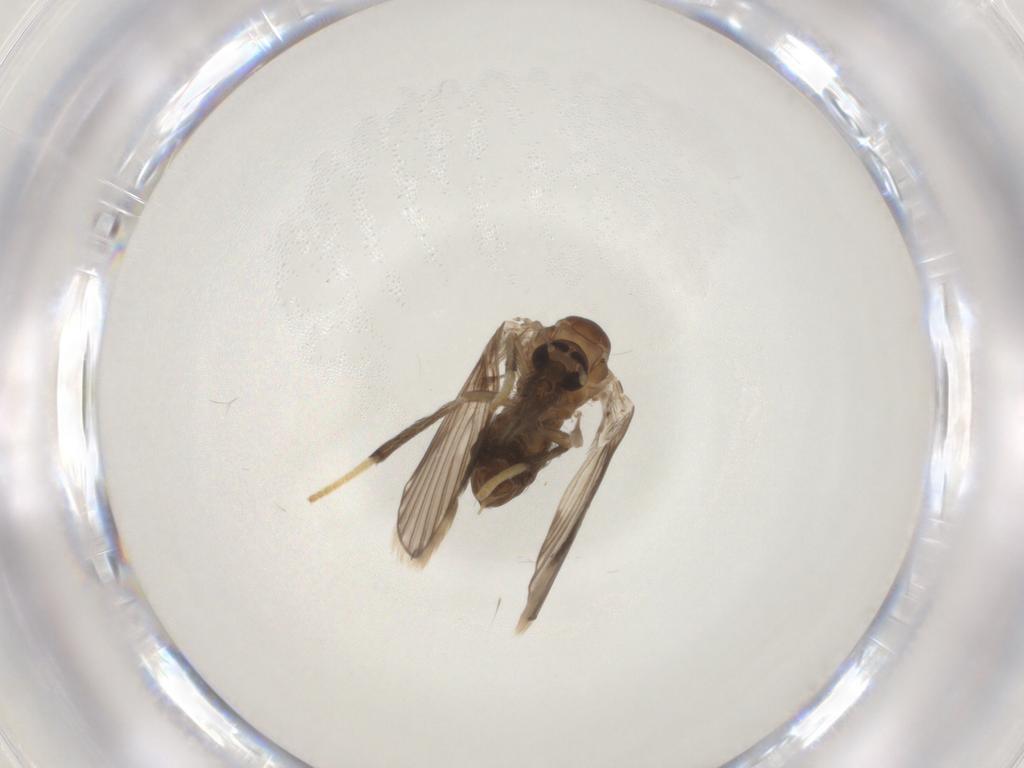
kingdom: Animalia
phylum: Arthropoda
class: Insecta
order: Diptera
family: Psychodidae
